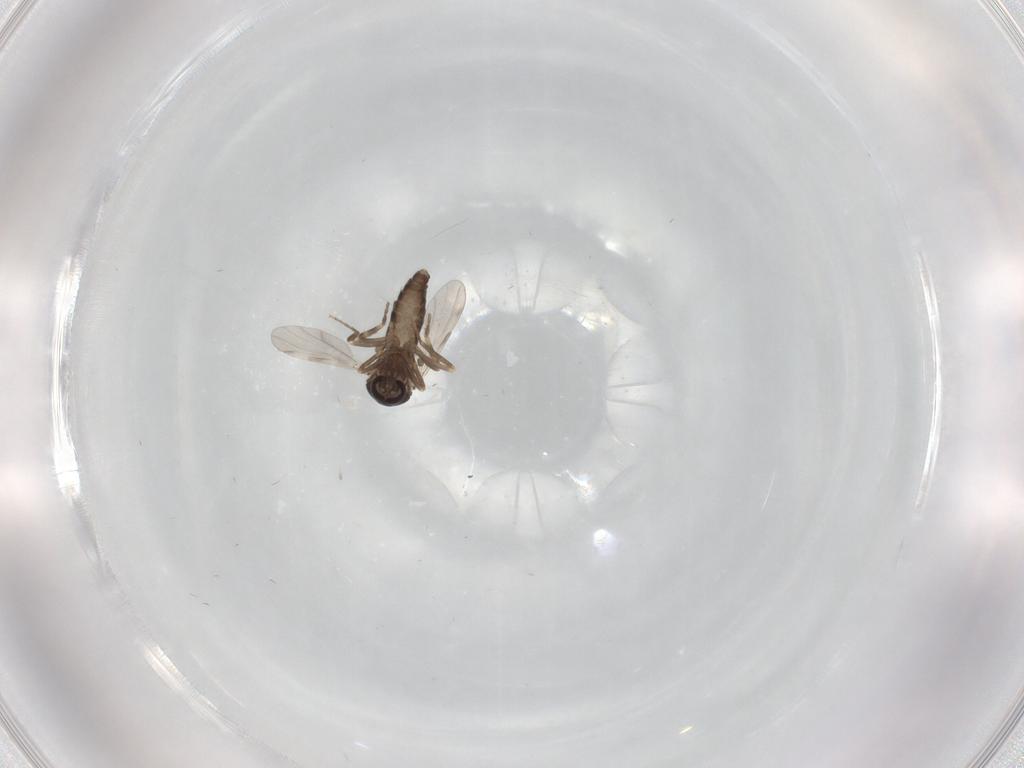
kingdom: Animalia
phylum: Arthropoda
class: Insecta
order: Diptera
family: Ceratopogonidae
